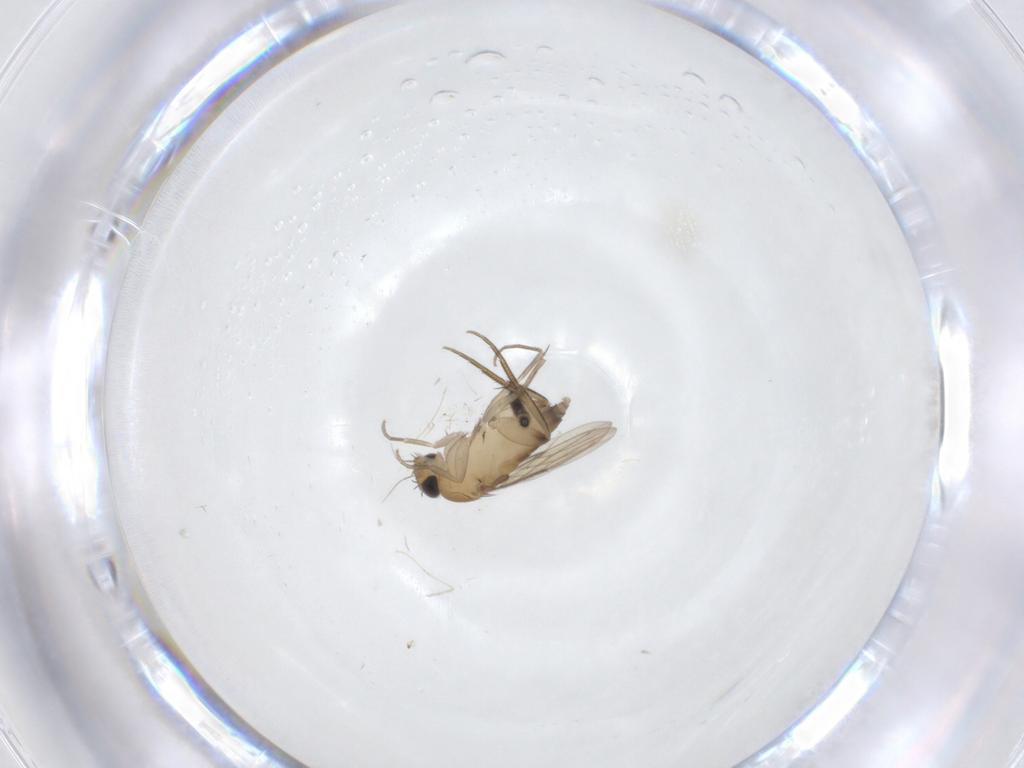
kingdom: Animalia
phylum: Arthropoda
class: Insecta
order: Diptera
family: Phoridae
